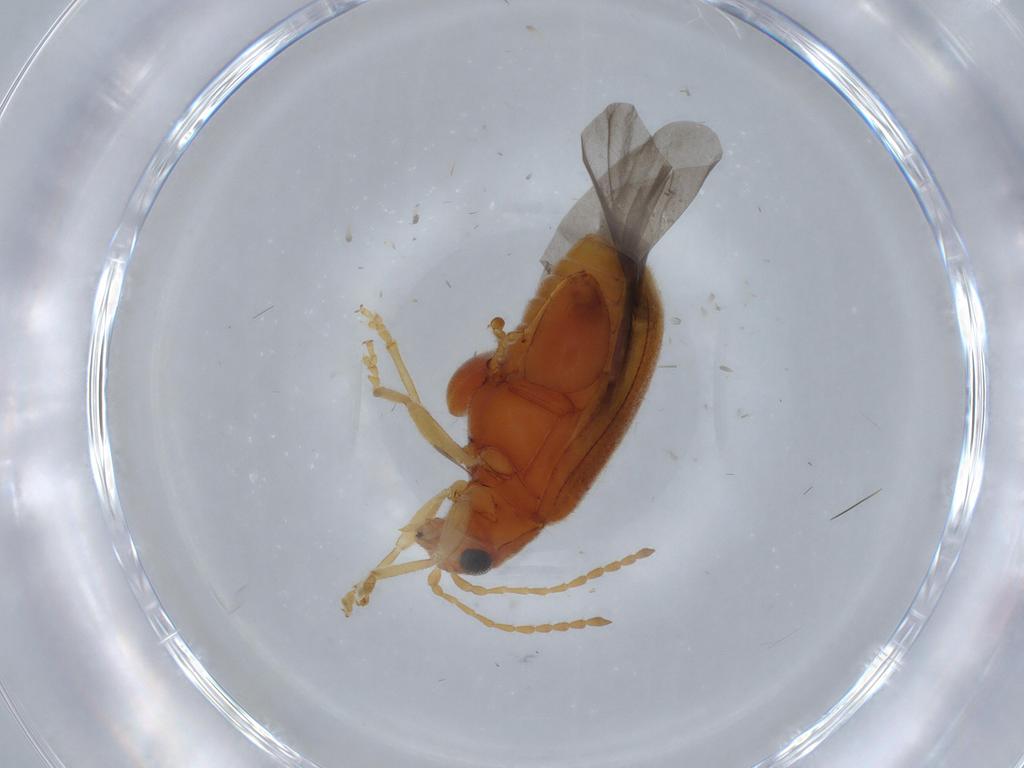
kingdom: Animalia
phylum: Arthropoda
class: Insecta
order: Coleoptera
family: Chrysomelidae
